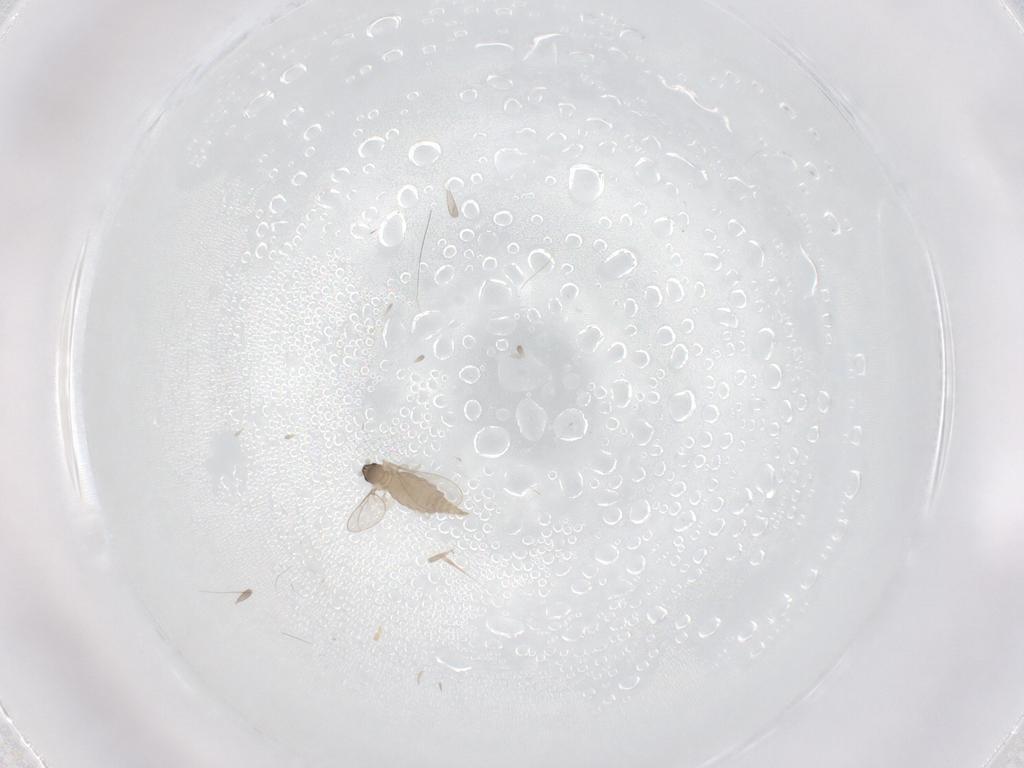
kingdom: Animalia
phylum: Arthropoda
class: Insecta
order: Diptera
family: Cecidomyiidae
